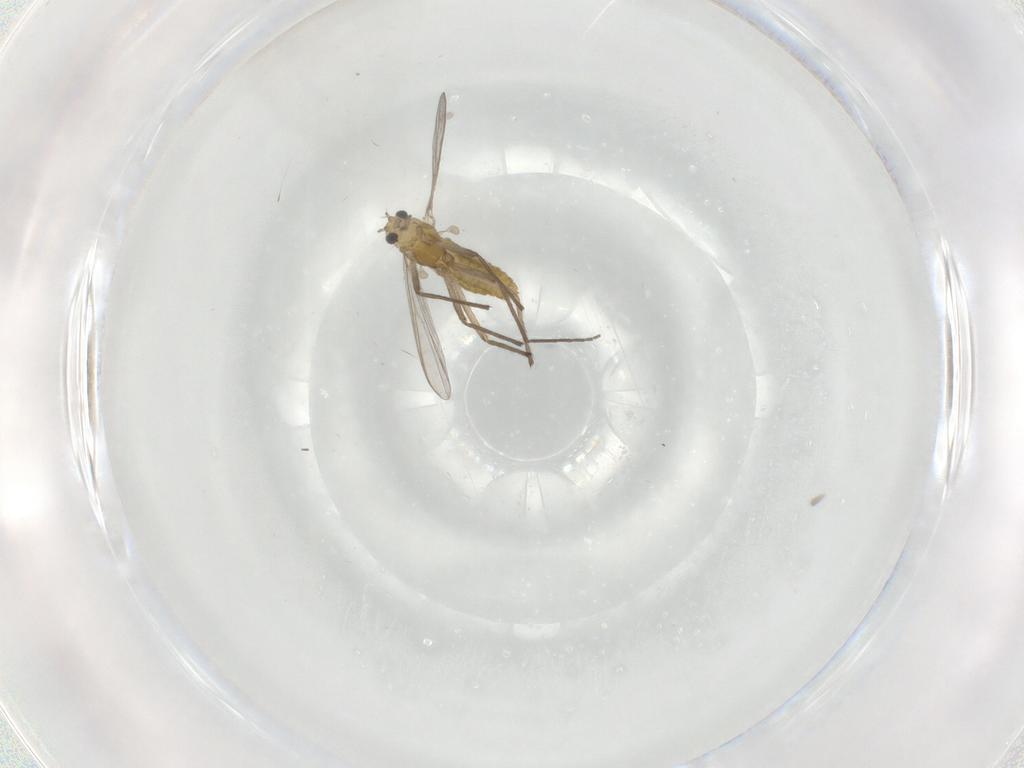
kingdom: Animalia
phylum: Arthropoda
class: Insecta
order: Diptera
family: Chironomidae
